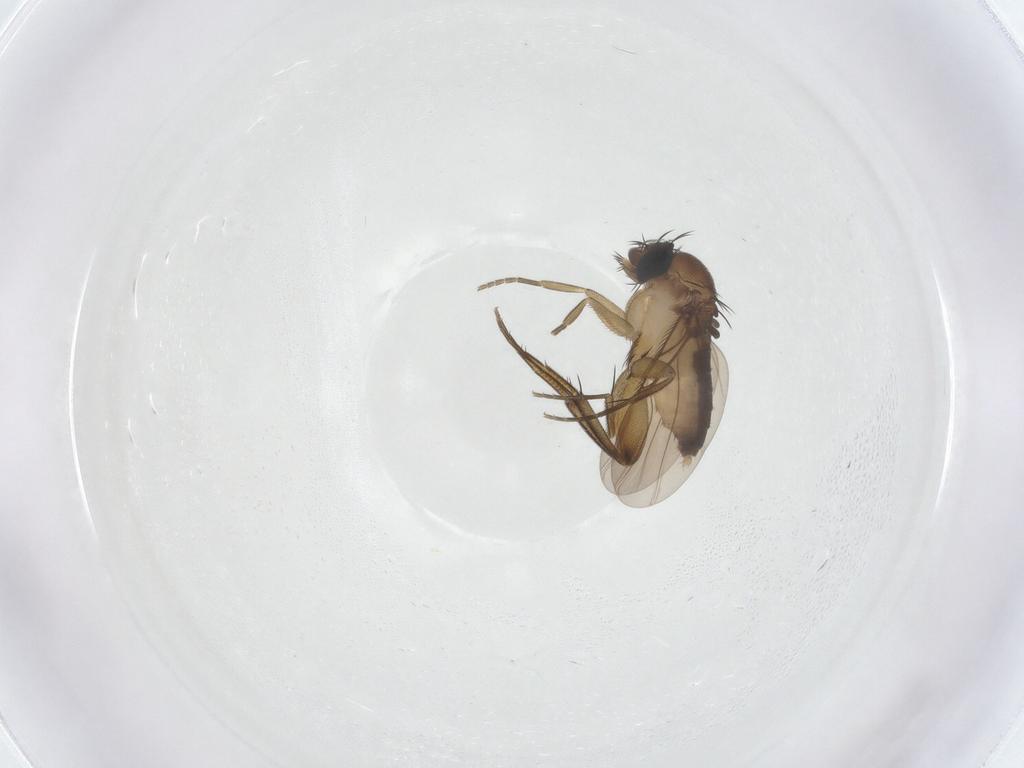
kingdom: Animalia
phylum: Arthropoda
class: Insecta
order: Diptera
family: Phoridae
